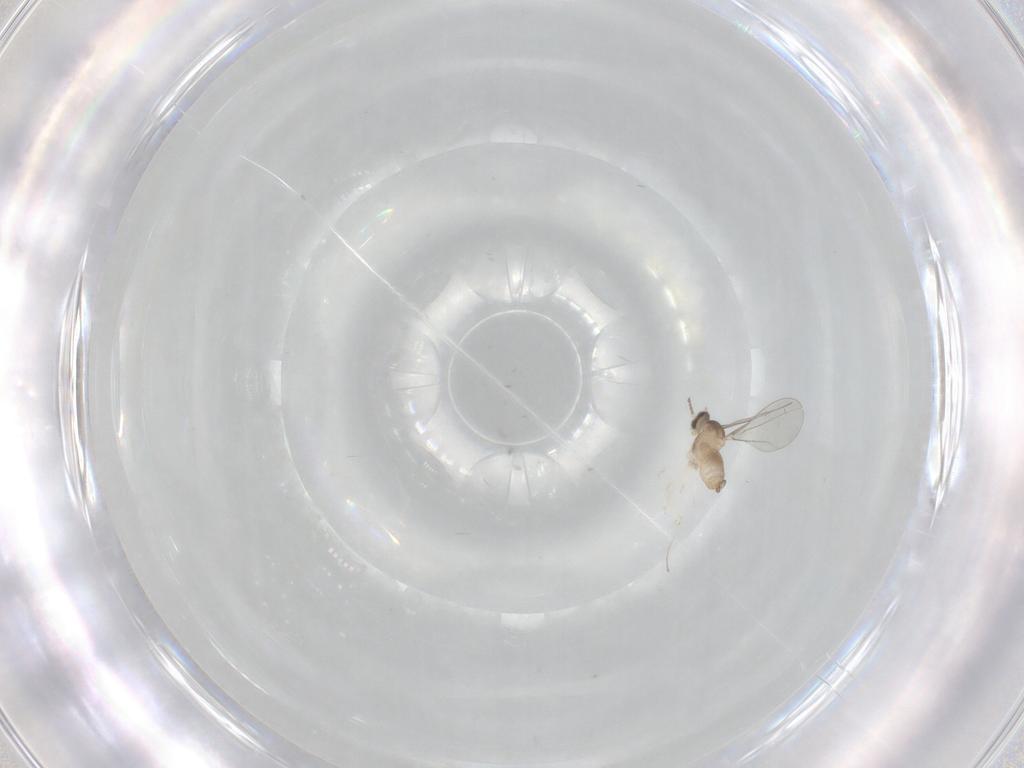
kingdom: Animalia
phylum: Arthropoda
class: Insecta
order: Diptera
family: Cecidomyiidae
